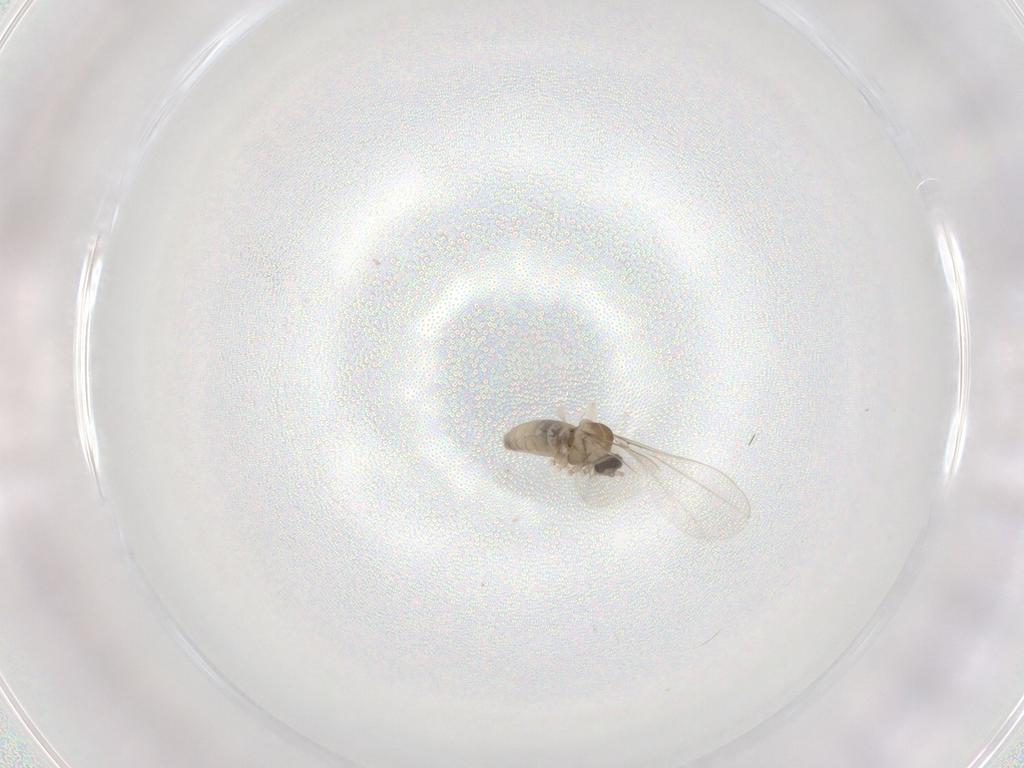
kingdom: Animalia
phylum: Arthropoda
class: Insecta
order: Diptera
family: Cecidomyiidae
